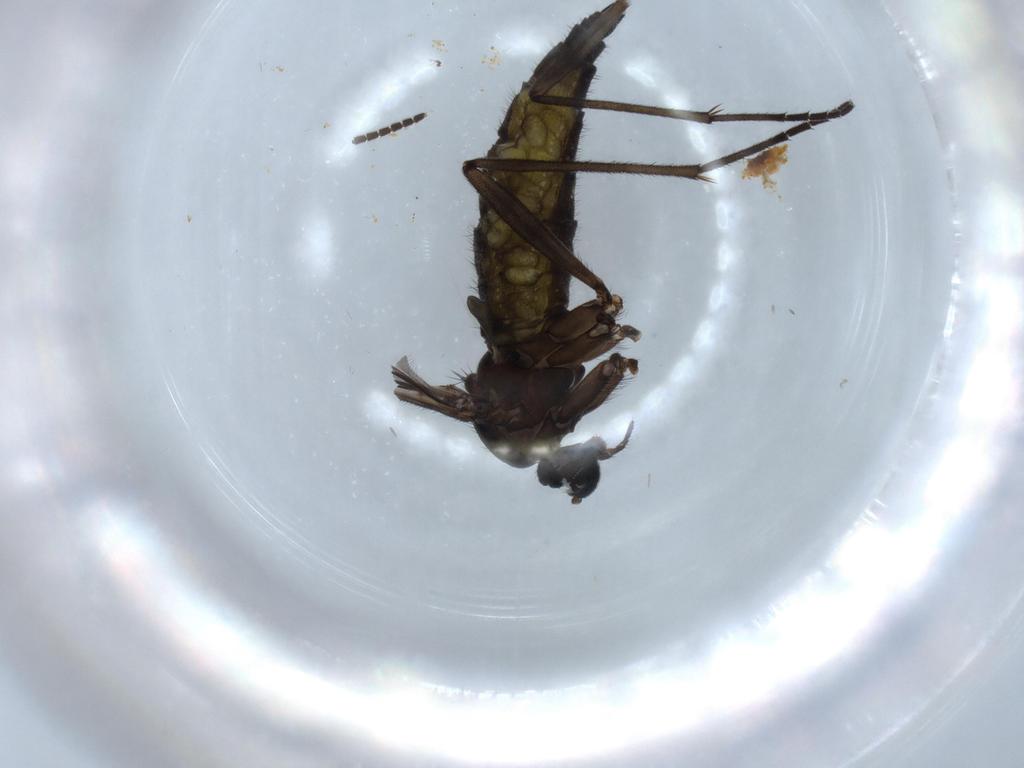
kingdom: Animalia
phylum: Arthropoda
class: Insecta
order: Diptera
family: Sciaridae
